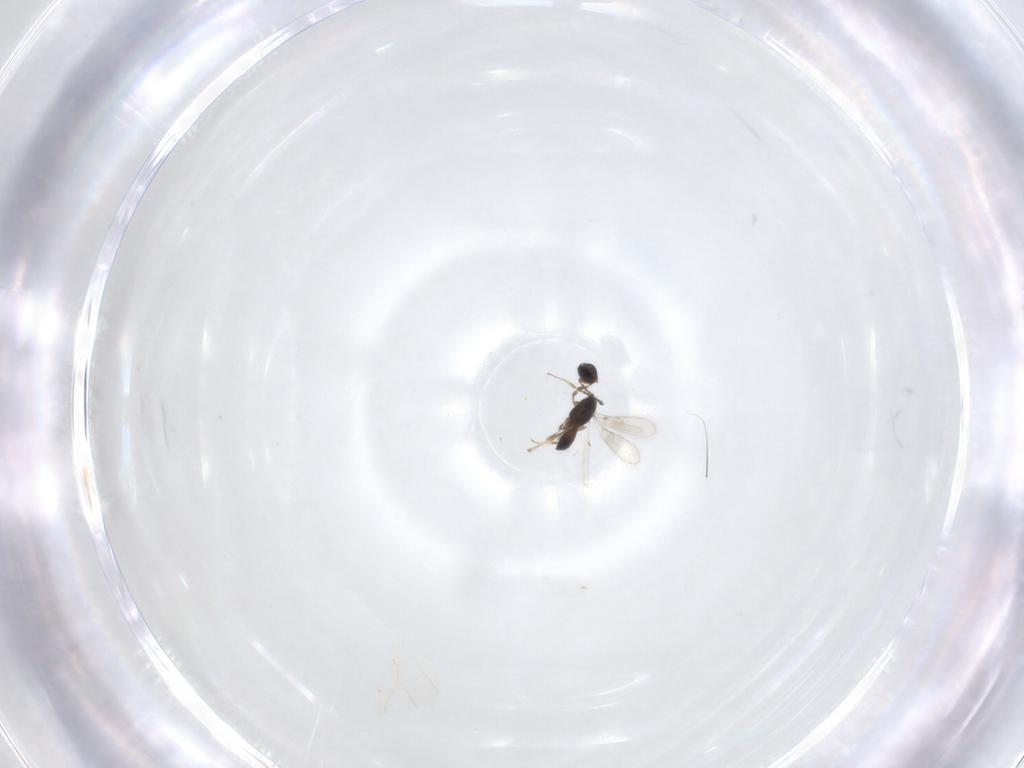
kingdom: Animalia
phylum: Arthropoda
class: Insecta
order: Hymenoptera
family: Scelionidae
